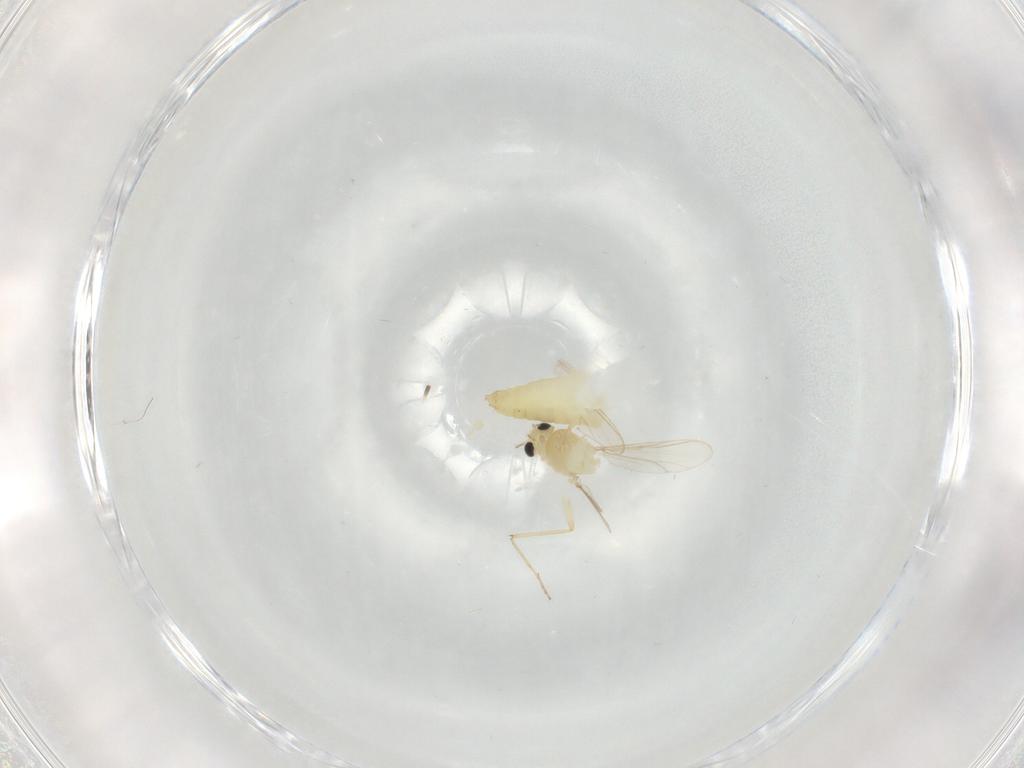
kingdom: Animalia
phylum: Arthropoda
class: Insecta
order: Diptera
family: Chironomidae
